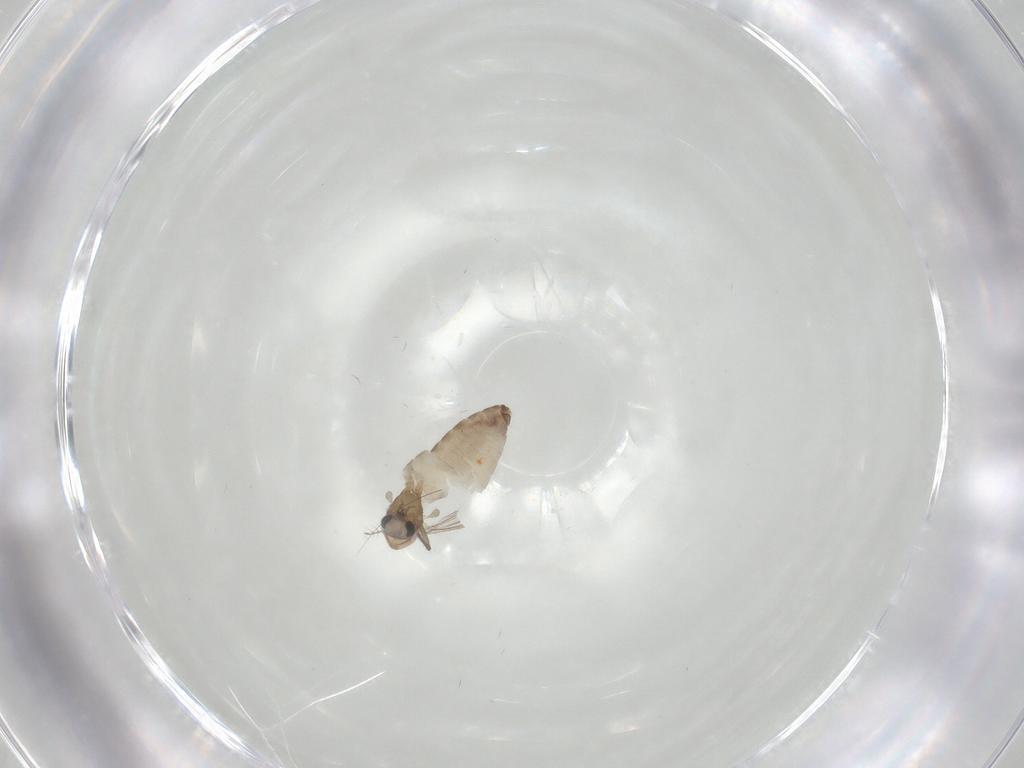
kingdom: Animalia
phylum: Arthropoda
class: Insecta
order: Diptera
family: Chironomidae
